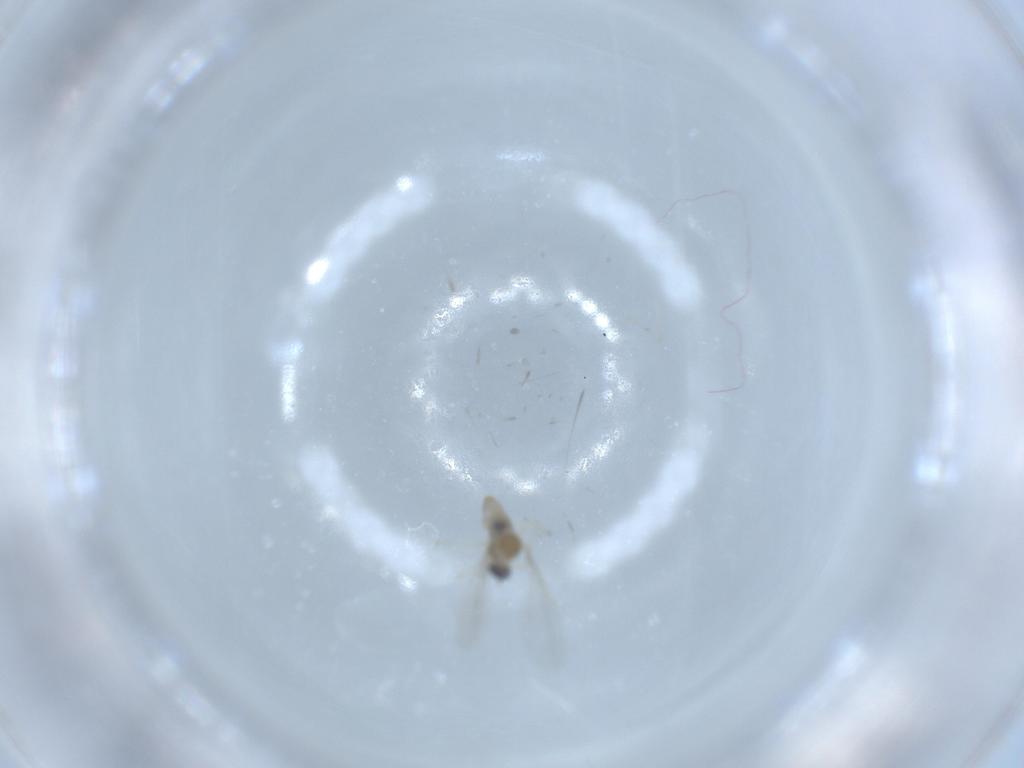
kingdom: Animalia
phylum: Arthropoda
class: Insecta
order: Diptera
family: Cecidomyiidae
